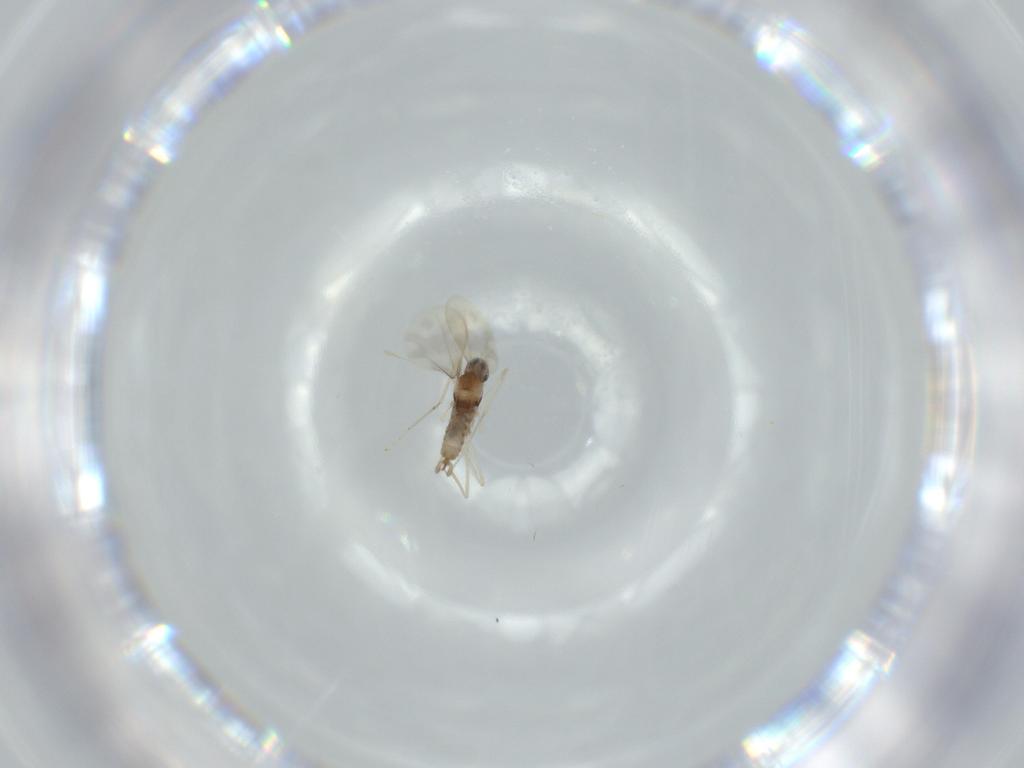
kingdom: Animalia
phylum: Arthropoda
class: Insecta
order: Diptera
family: Cecidomyiidae
